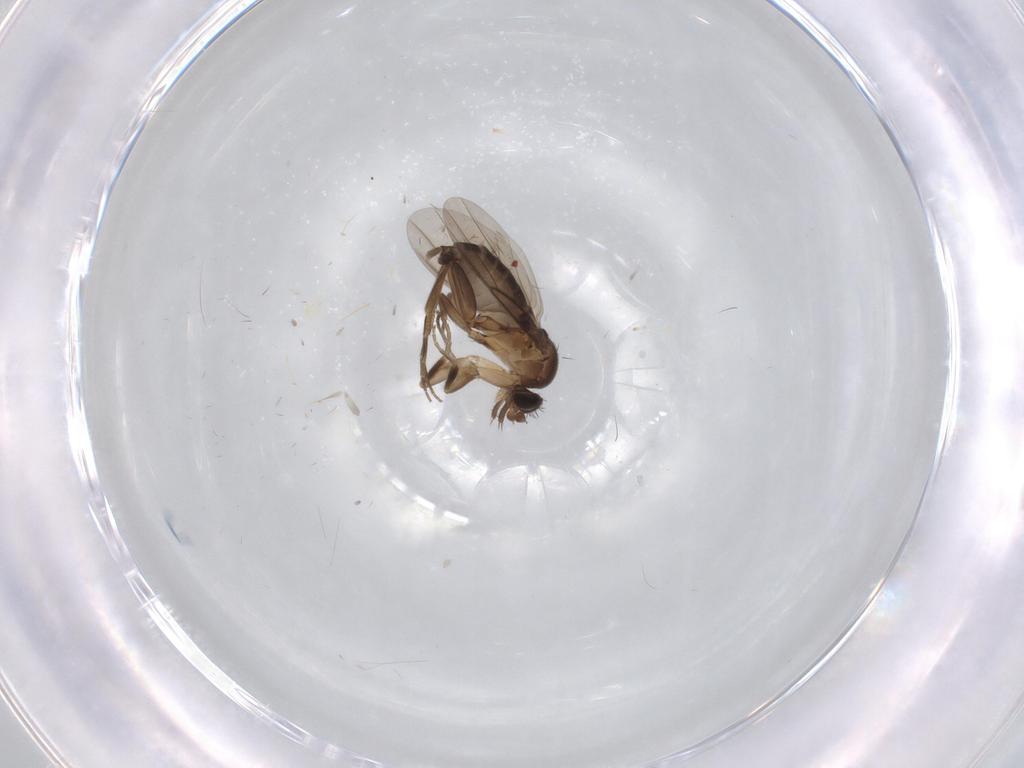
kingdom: Animalia
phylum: Arthropoda
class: Insecta
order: Diptera
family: Phoridae
